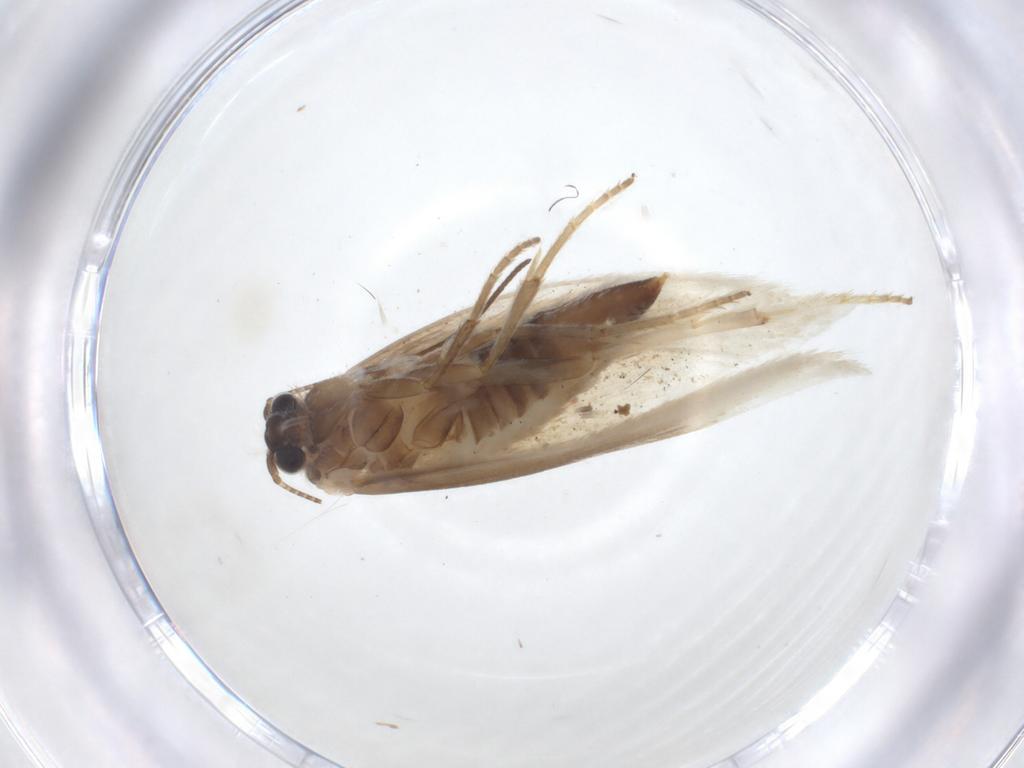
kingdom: Animalia
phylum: Arthropoda
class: Insecta
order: Lepidoptera
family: Tridentaformidae
